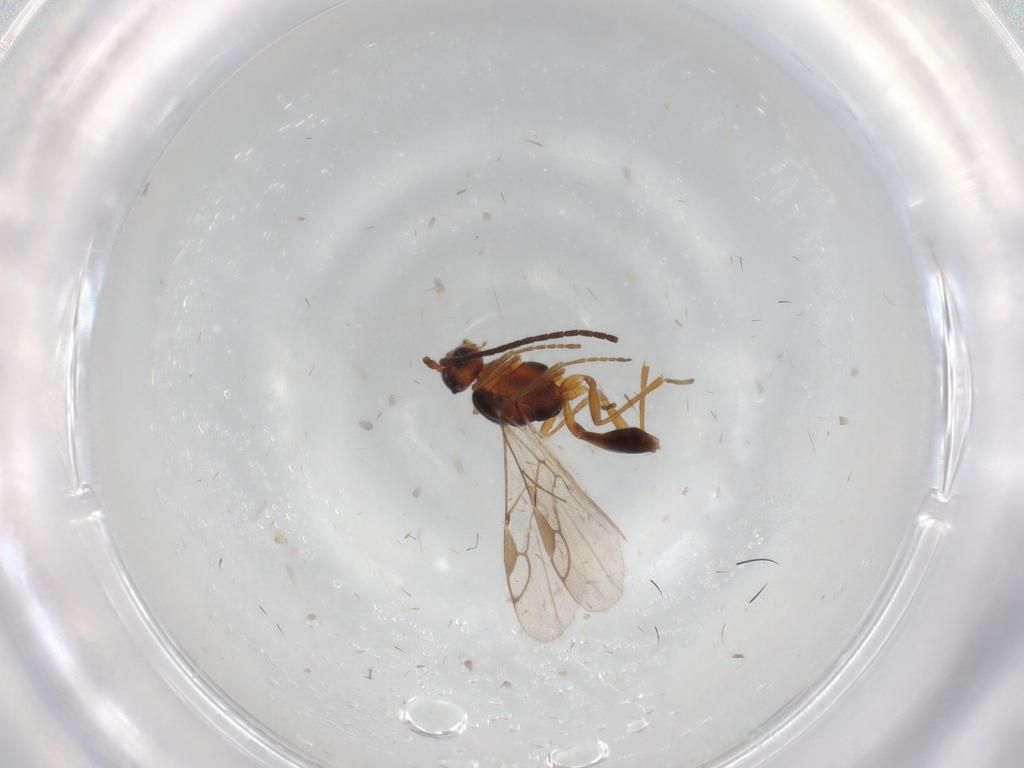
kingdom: Animalia
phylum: Arthropoda
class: Insecta
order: Hymenoptera
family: Braconidae
